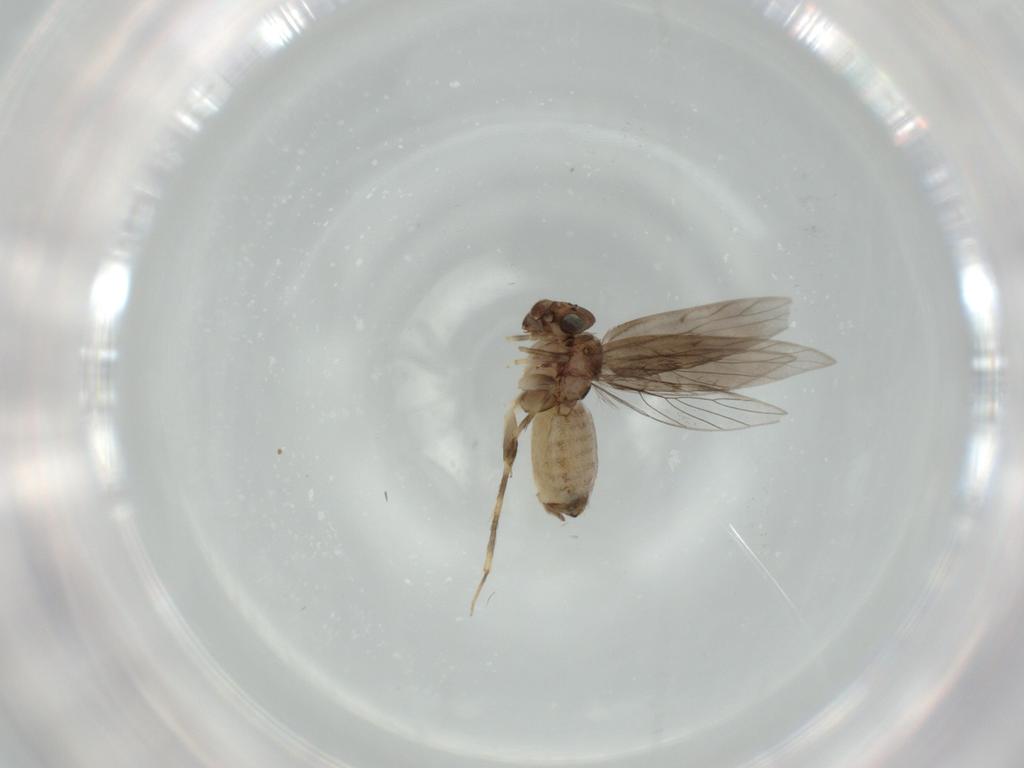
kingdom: Animalia
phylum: Arthropoda
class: Insecta
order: Psocodea
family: Lepidopsocidae
